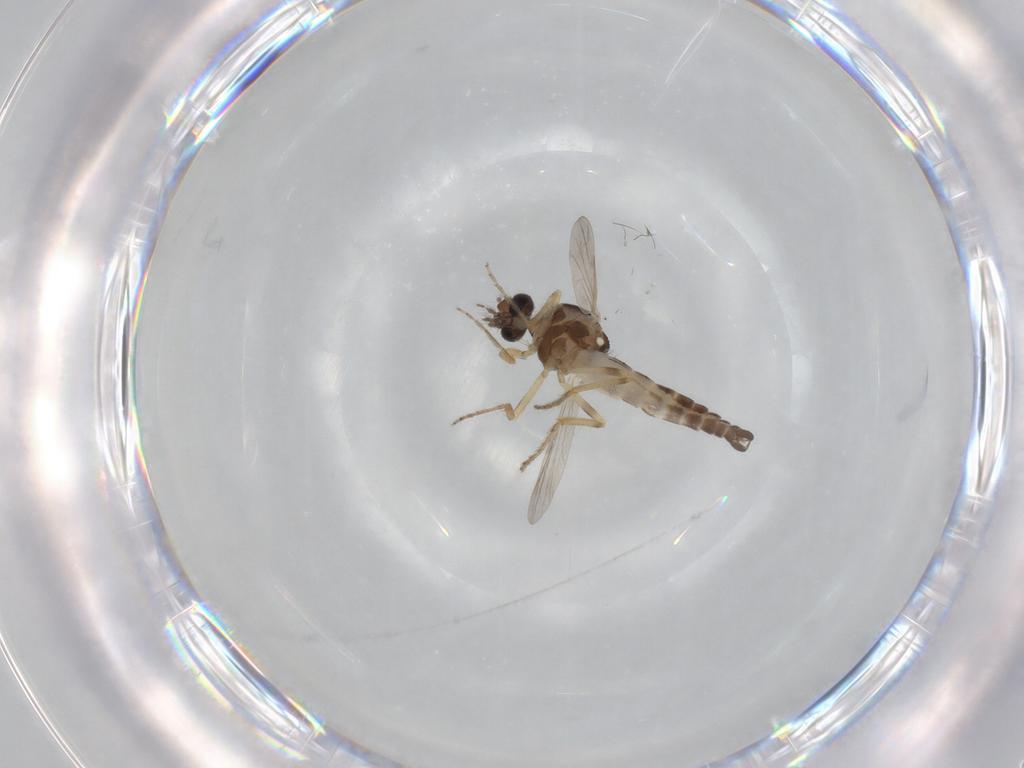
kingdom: Animalia
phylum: Arthropoda
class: Insecta
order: Diptera
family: Ceratopogonidae
